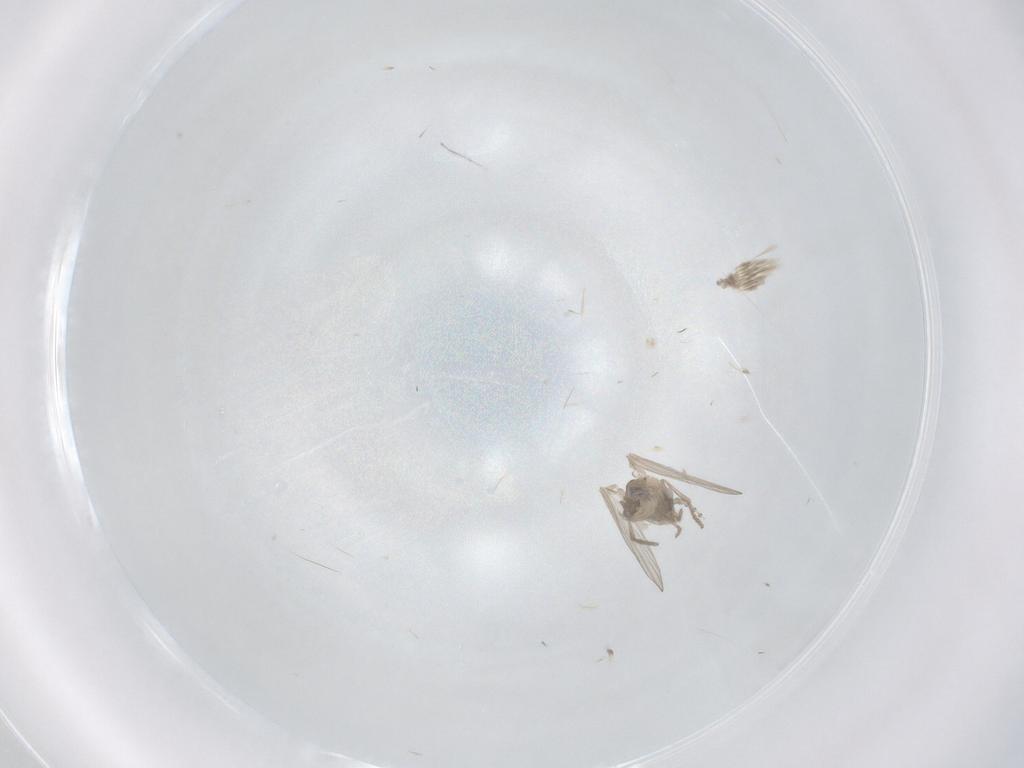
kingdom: Animalia
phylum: Arthropoda
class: Insecta
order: Diptera
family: Psychodidae
